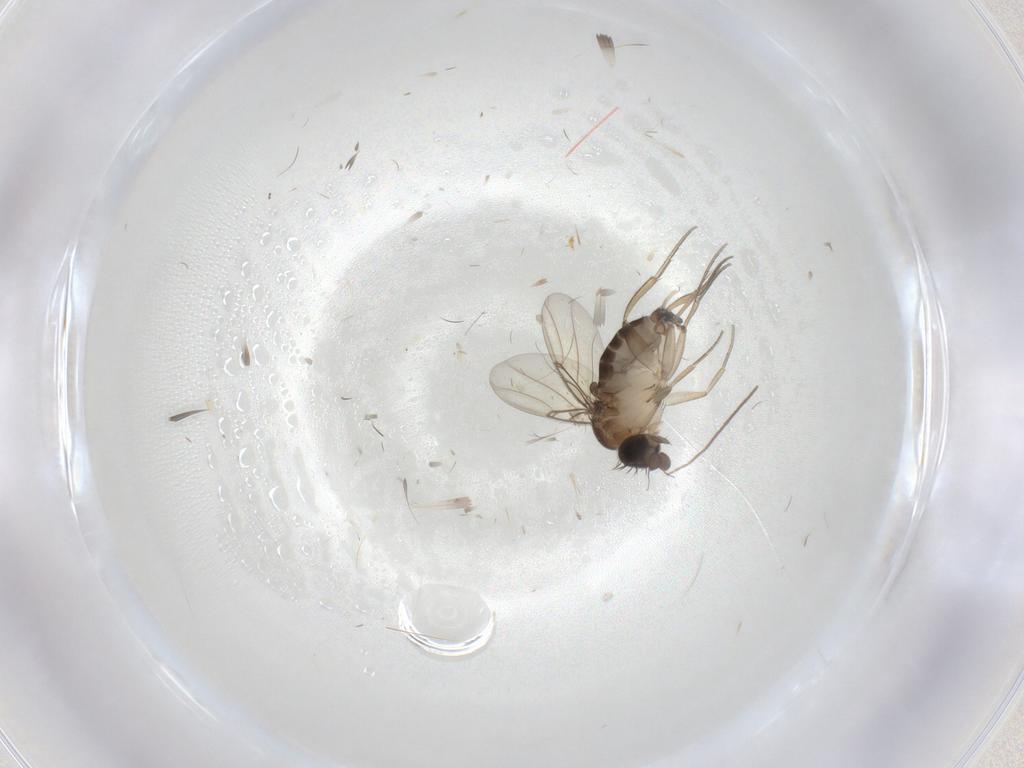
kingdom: Animalia
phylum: Arthropoda
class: Insecta
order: Diptera
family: Phoridae
